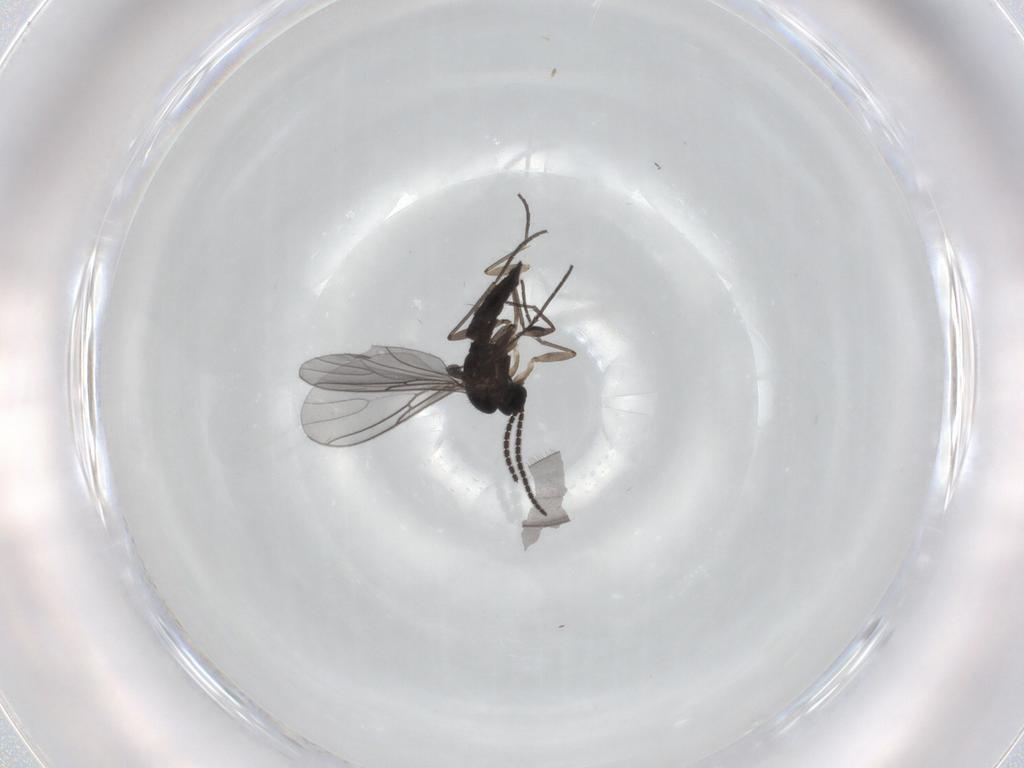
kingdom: Animalia
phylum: Arthropoda
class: Insecta
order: Diptera
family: Sciaridae
